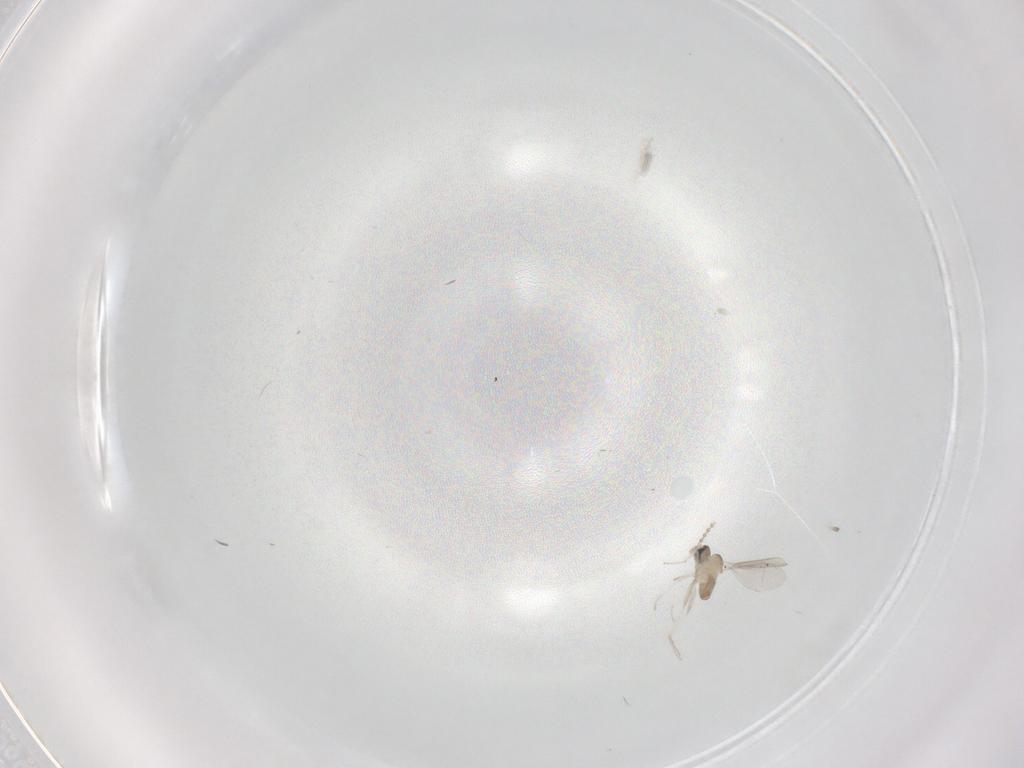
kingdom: Animalia
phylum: Arthropoda
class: Insecta
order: Diptera
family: Cecidomyiidae
